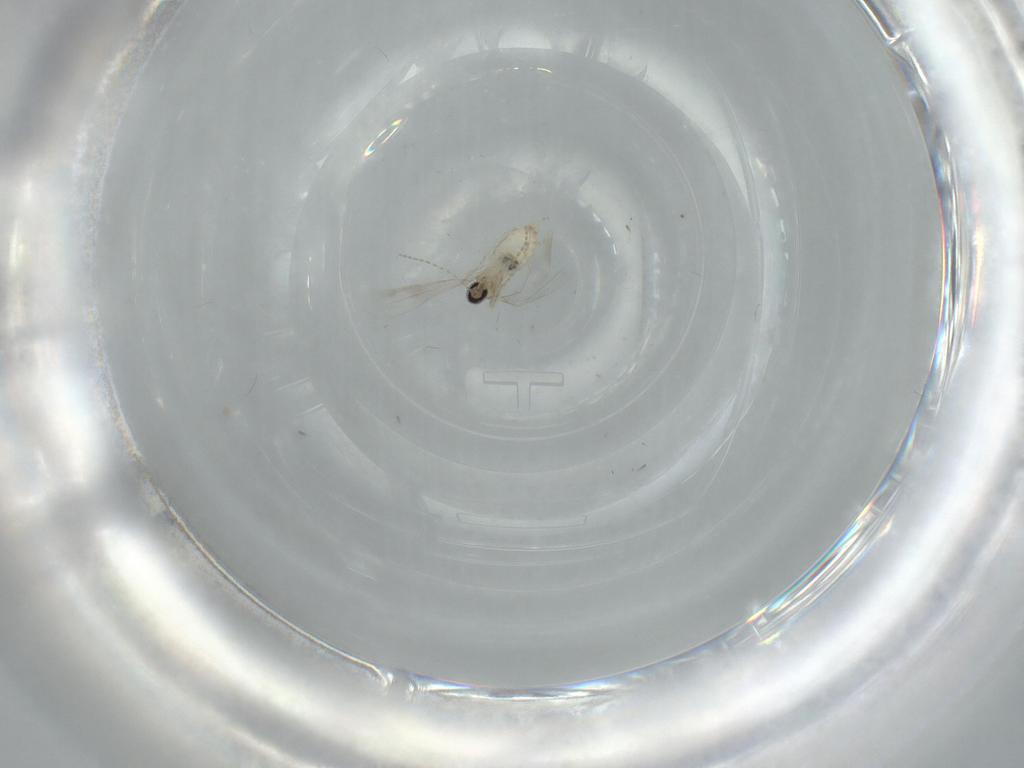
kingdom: Animalia
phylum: Arthropoda
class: Insecta
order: Diptera
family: Cecidomyiidae
